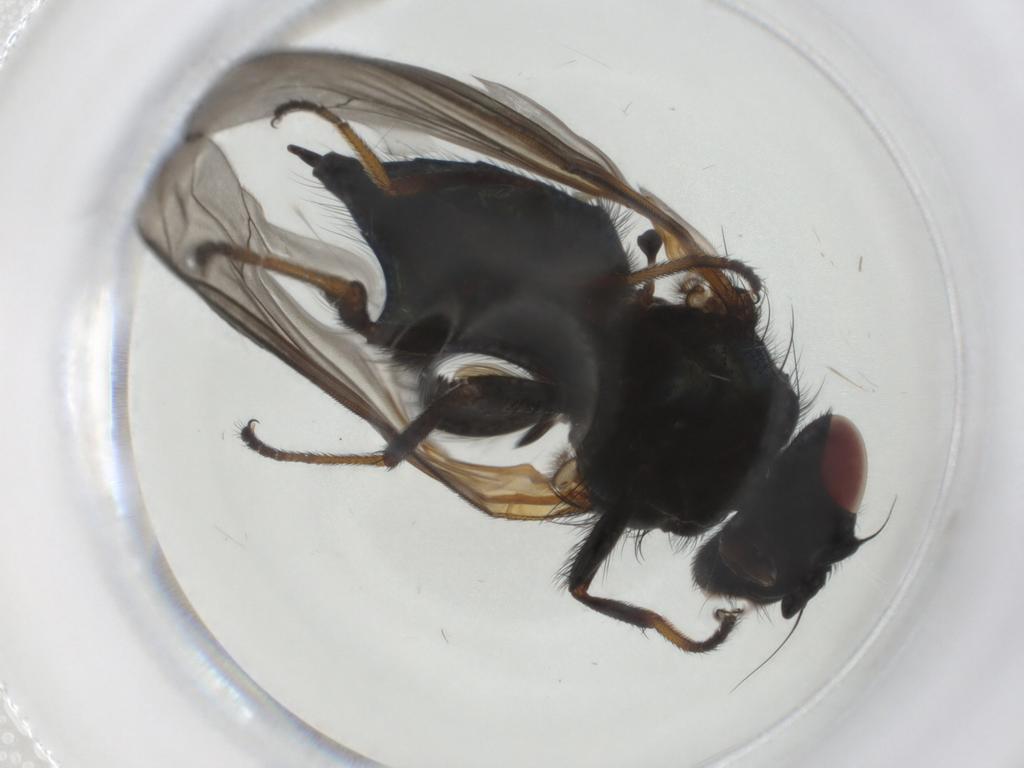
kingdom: Animalia
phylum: Arthropoda
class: Insecta
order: Diptera
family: Lonchaeidae
